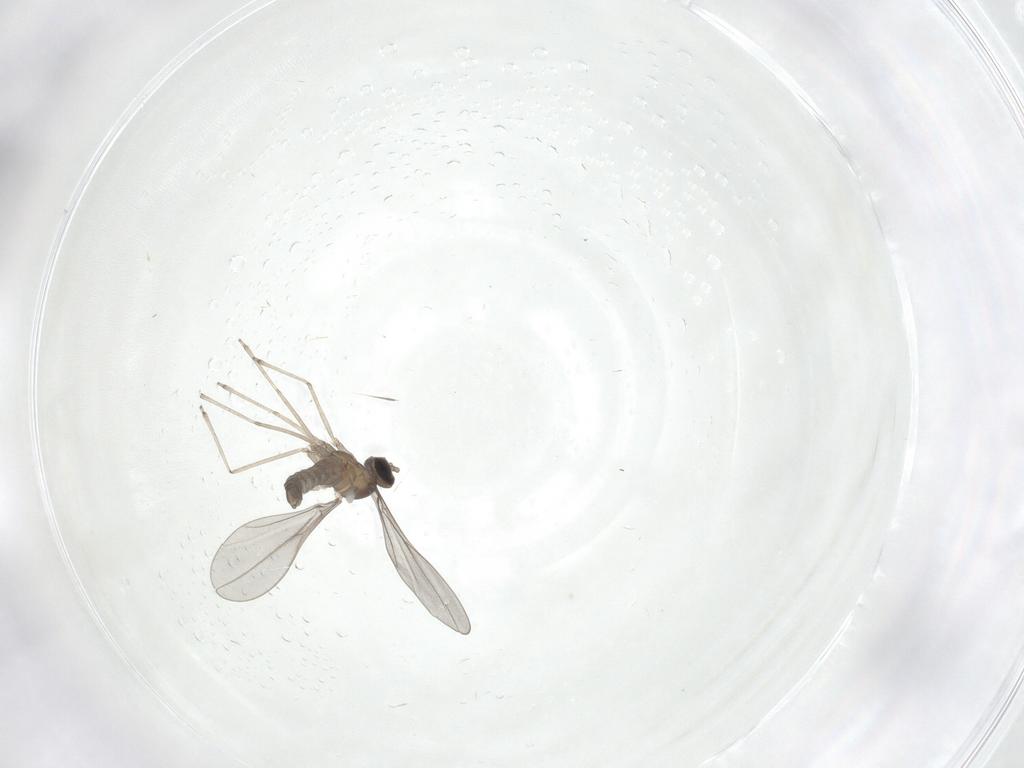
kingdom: Animalia
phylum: Arthropoda
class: Insecta
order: Diptera
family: Cecidomyiidae
